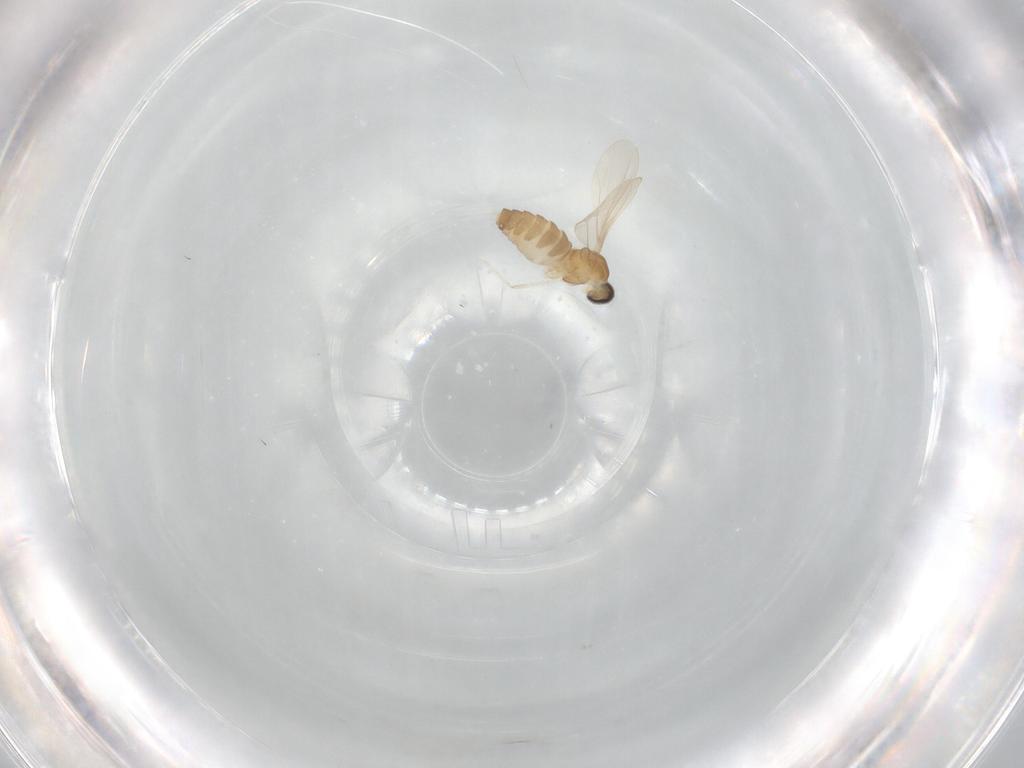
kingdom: Animalia
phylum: Arthropoda
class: Insecta
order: Diptera
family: Cecidomyiidae
